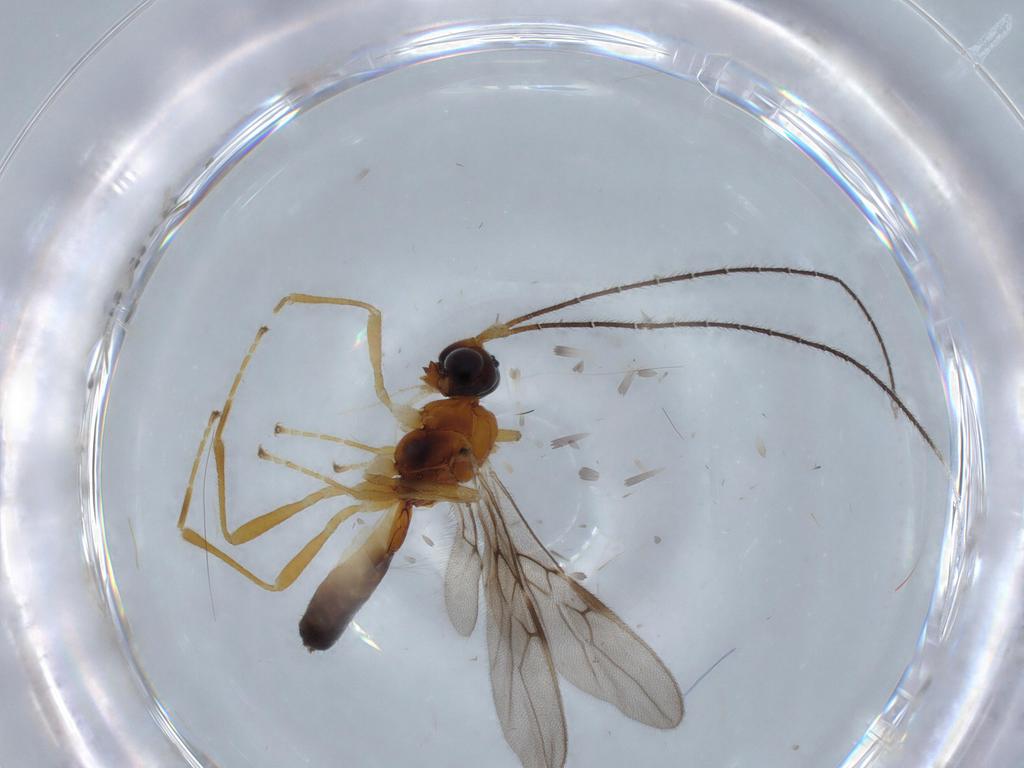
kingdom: Animalia
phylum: Arthropoda
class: Insecta
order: Hymenoptera
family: Braconidae
